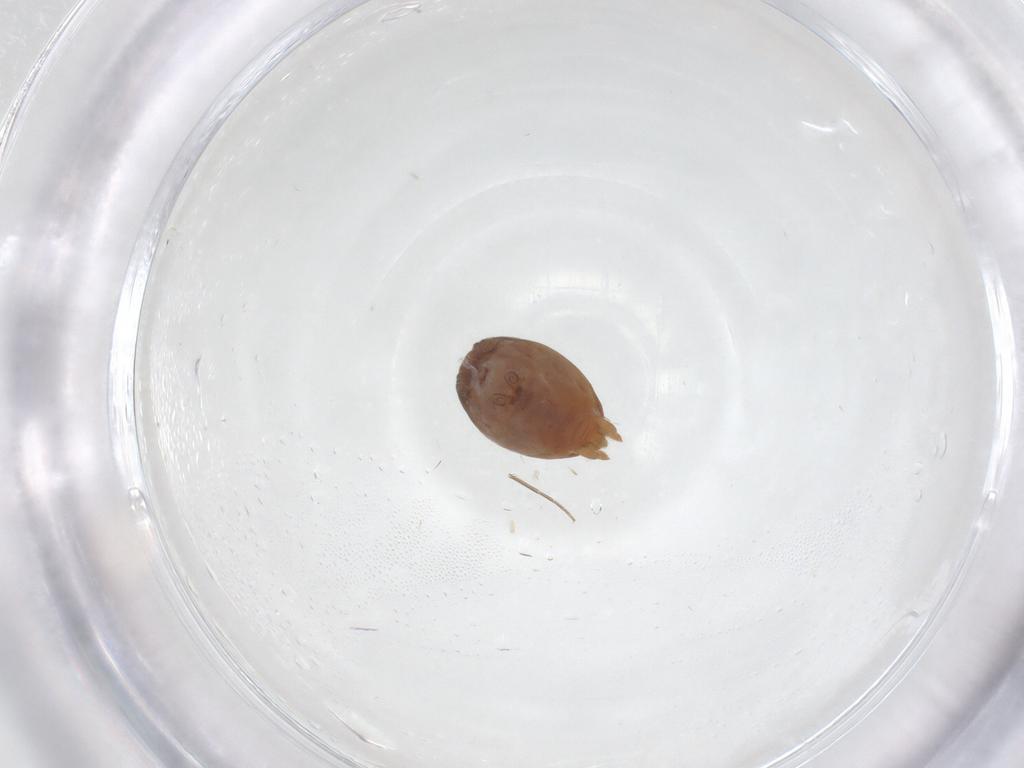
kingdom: Animalia
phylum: Arthropoda
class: Arachnida
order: Araneae
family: Dictynidae
